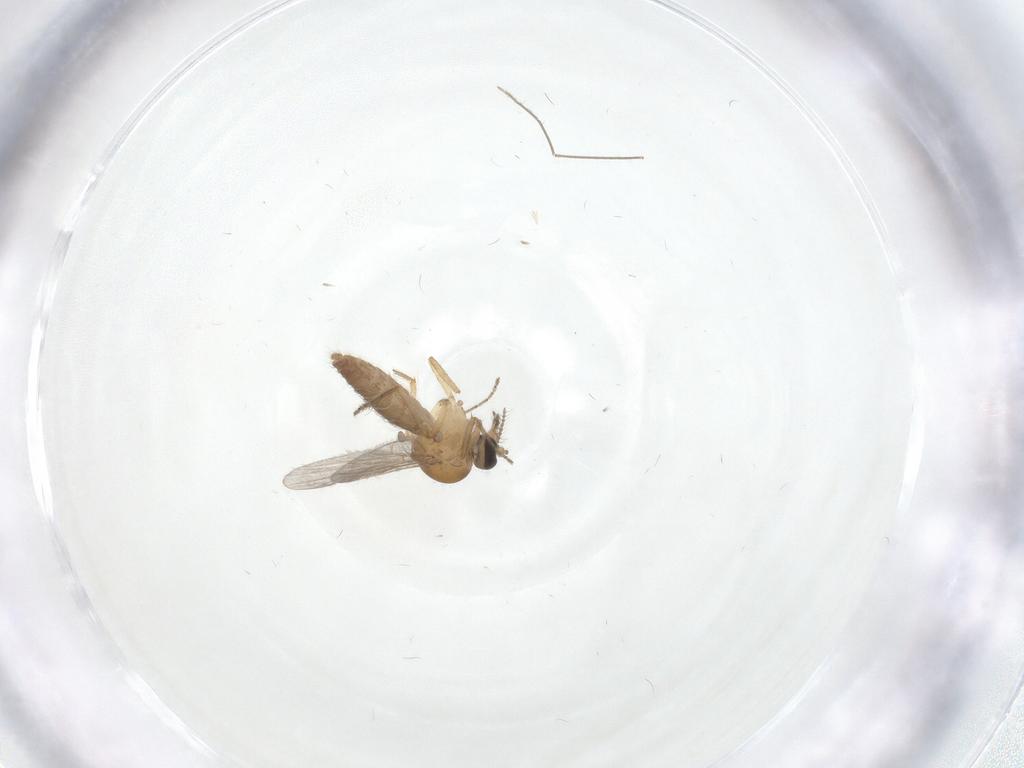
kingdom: Animalia
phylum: Arthropoda
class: Insecta
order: Diptera
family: Ceratopogonidae
